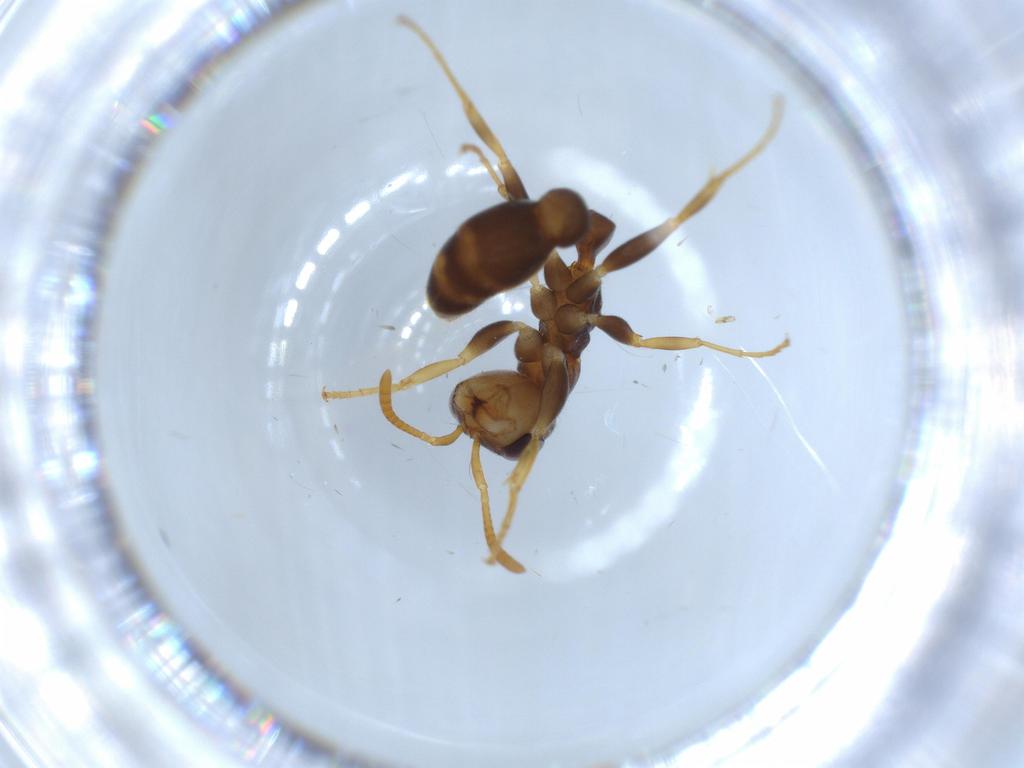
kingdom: Animalia
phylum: Arthropoda
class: Insecta
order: Hymenoptera
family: Formicidae
